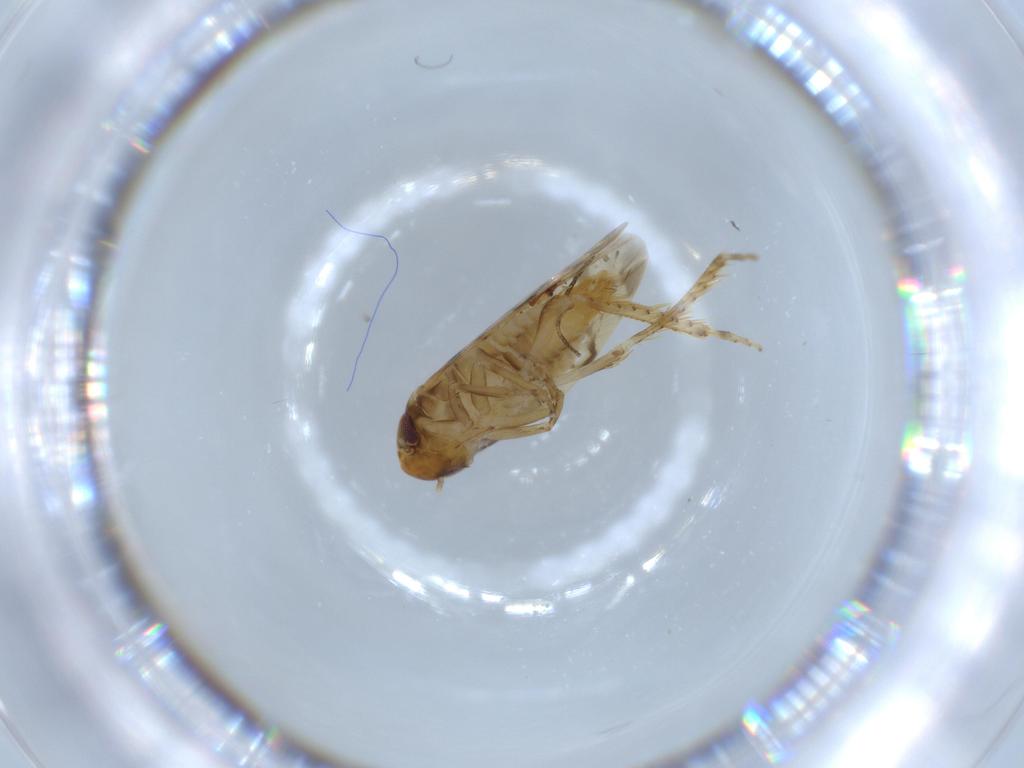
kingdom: Animalia
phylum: Arthropoda
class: Insecta
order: Hemiptera
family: Cicadellidae
